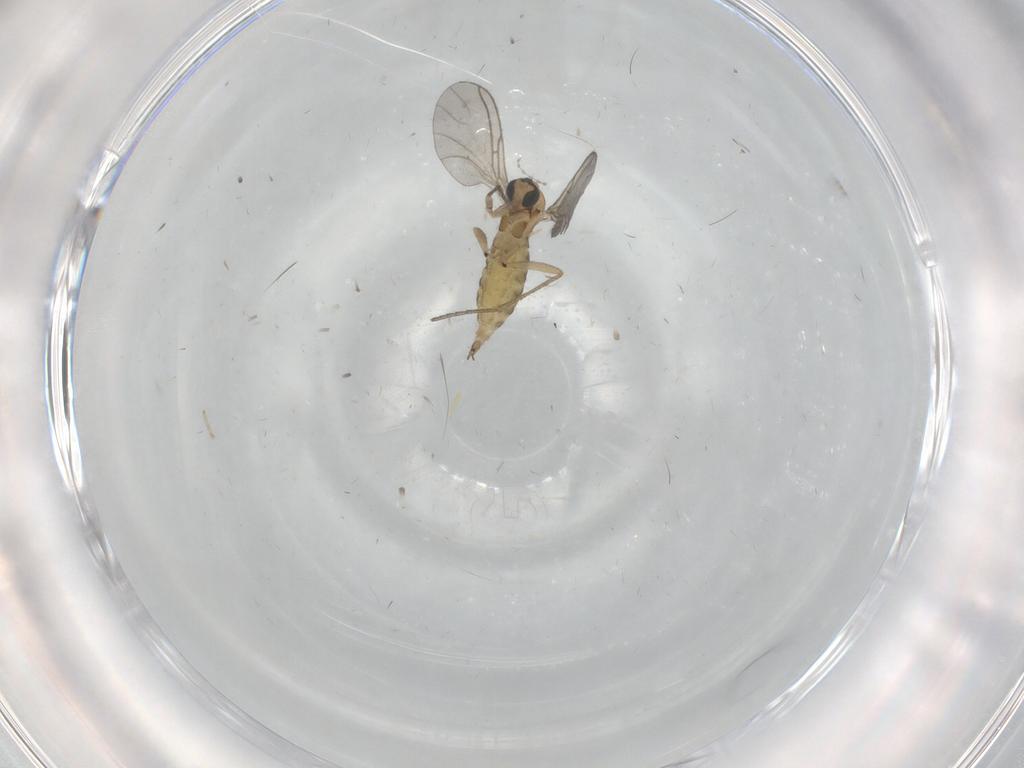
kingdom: Animalia
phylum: Arthropoda
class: Insecta
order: Diptera
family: Sciaridae
